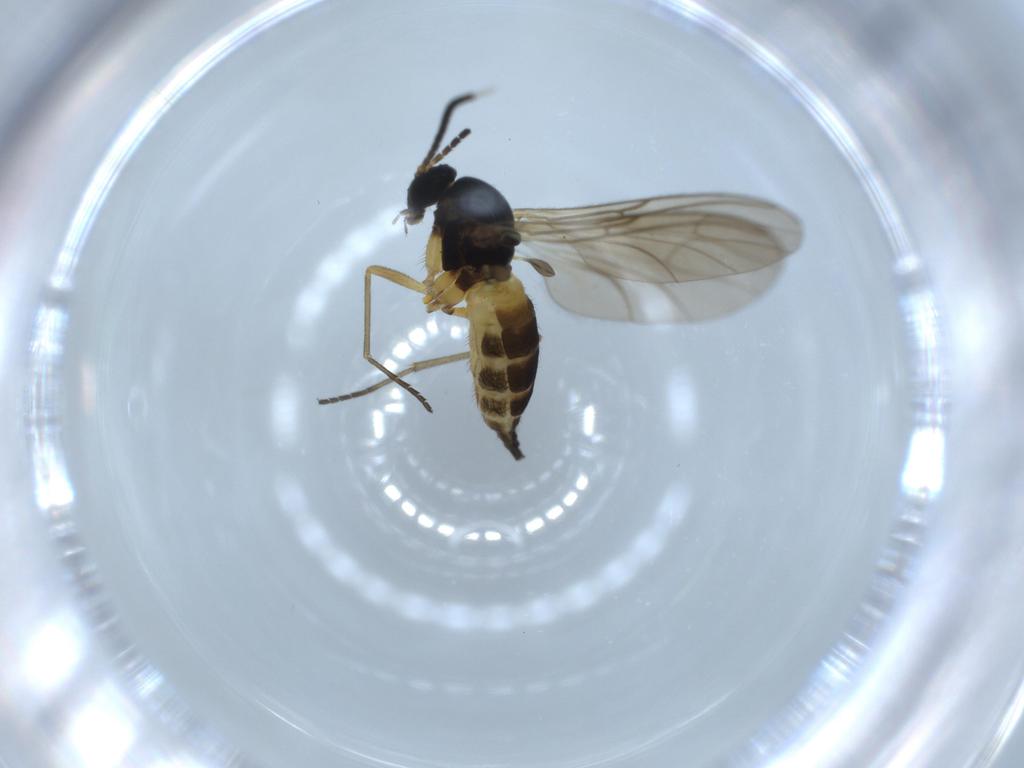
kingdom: Animalia
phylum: Arthropoda
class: Insecta
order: Diptera
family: Sciaridae
